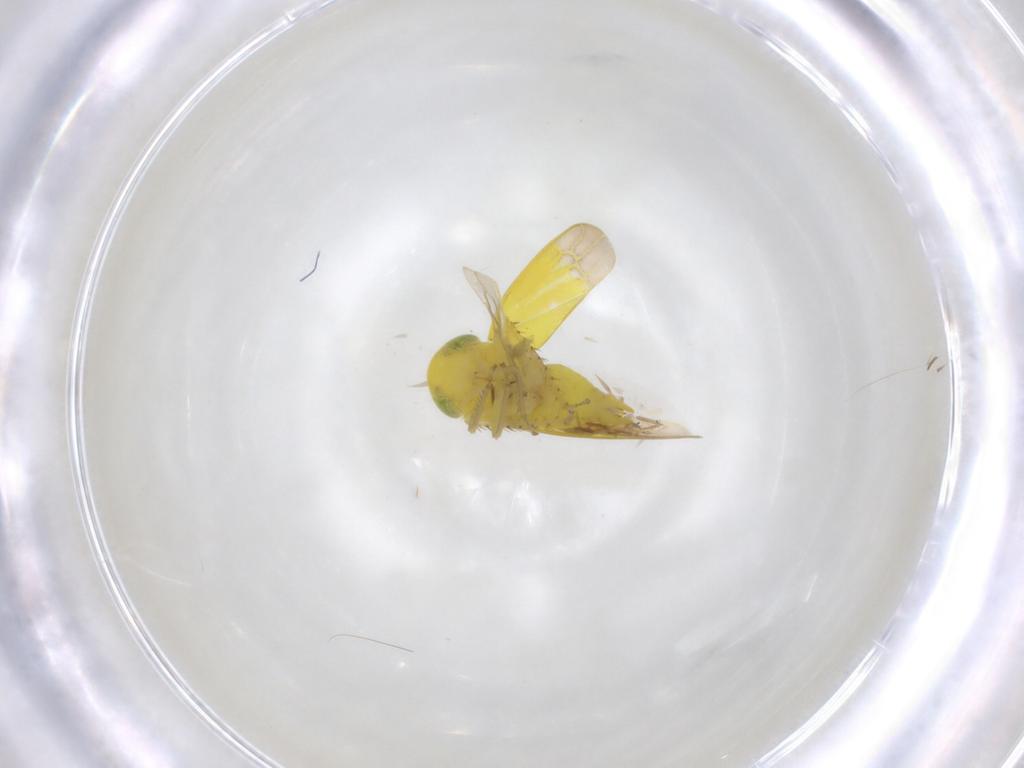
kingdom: Animalia
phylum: Arthropoda
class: Insecta
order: Hemiptera
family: Cicadellidae
